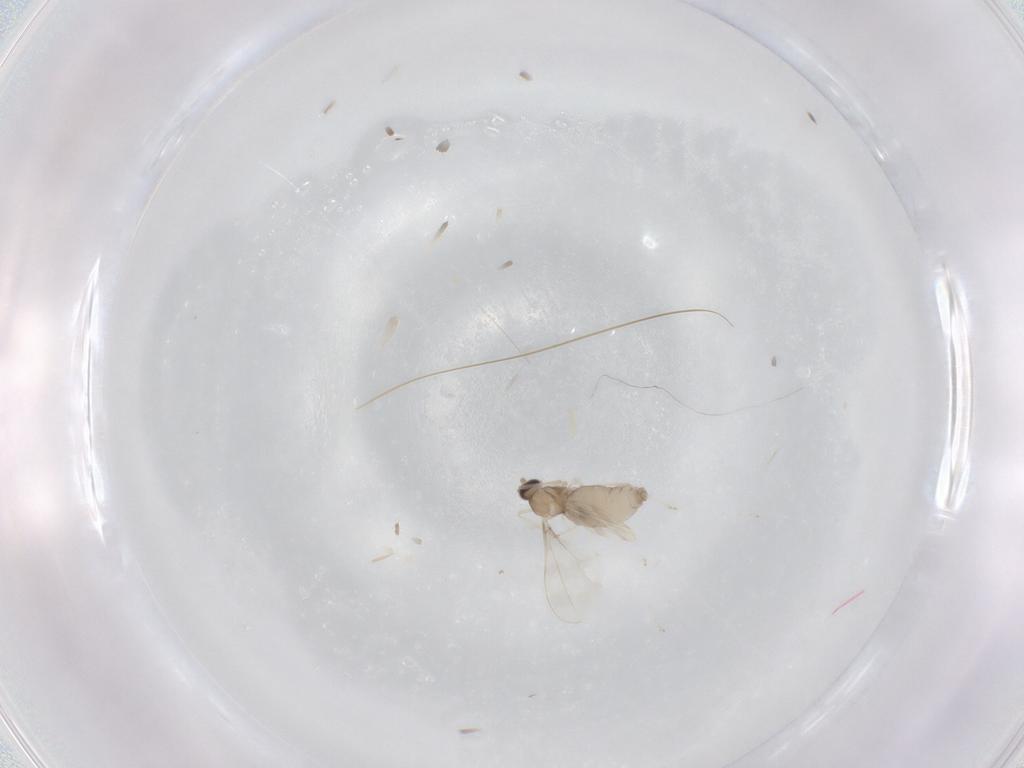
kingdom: Animalia
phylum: Arthropoda
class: Insecta
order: Diptera
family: Cecidomyiidae
